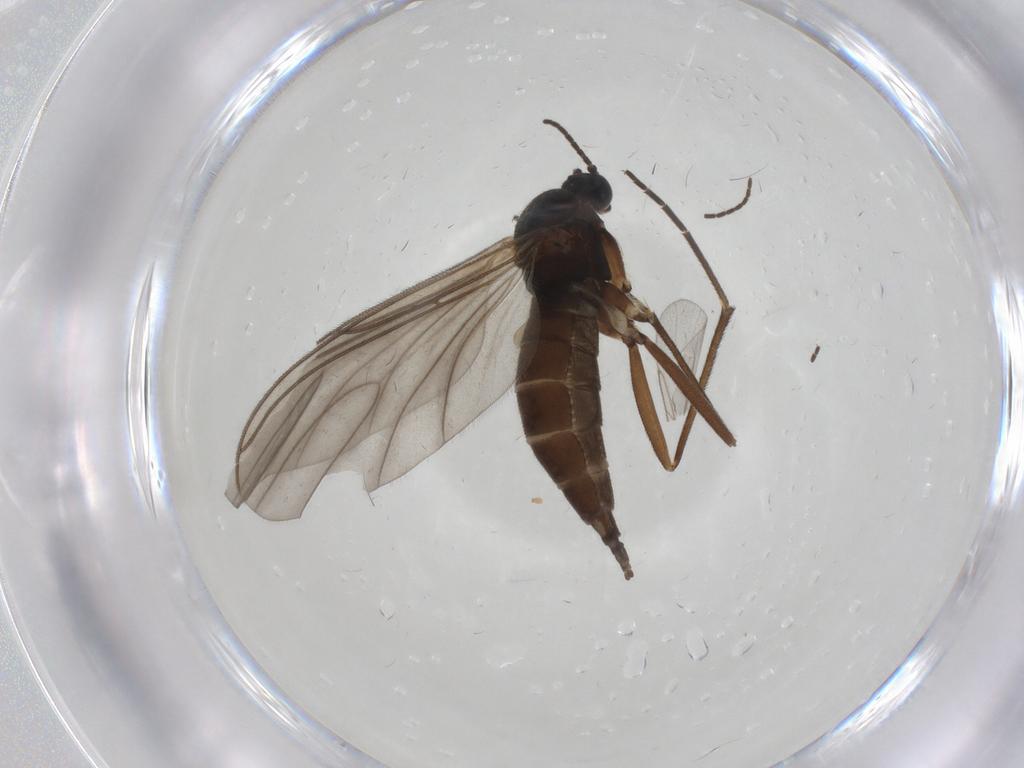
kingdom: Animalia
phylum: Arthropoda
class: Insecta
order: Diptera
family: Sciaridae
